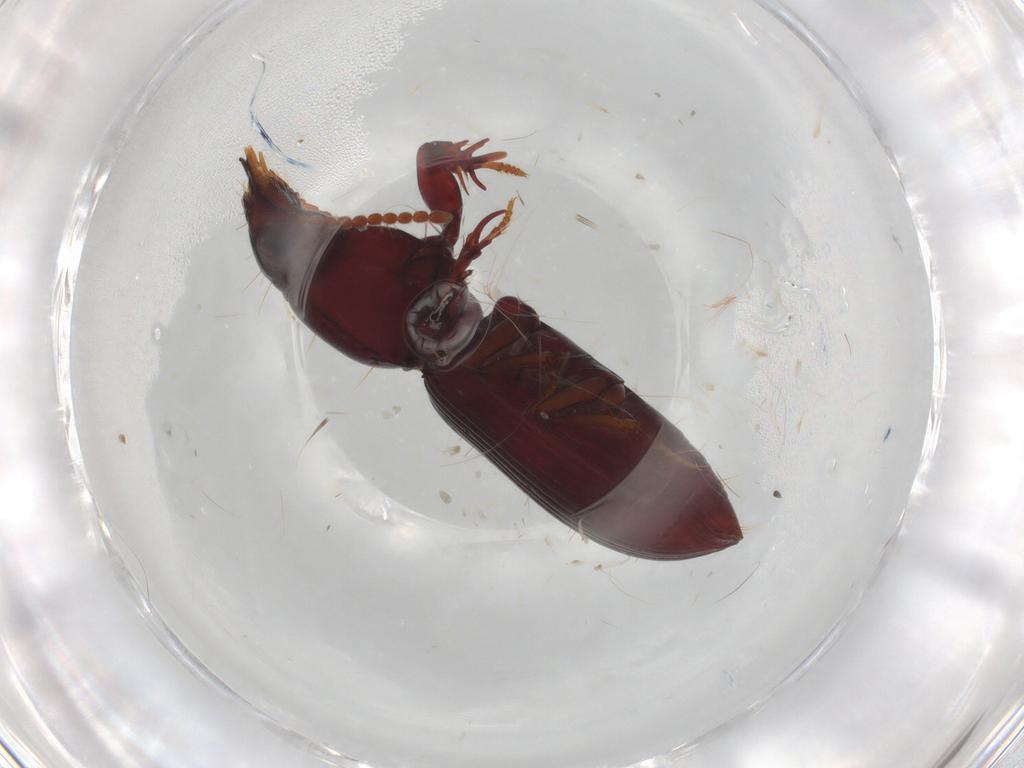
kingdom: Animalia
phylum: Arthropoda
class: Insecta
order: Coleoptera
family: Carabidae
